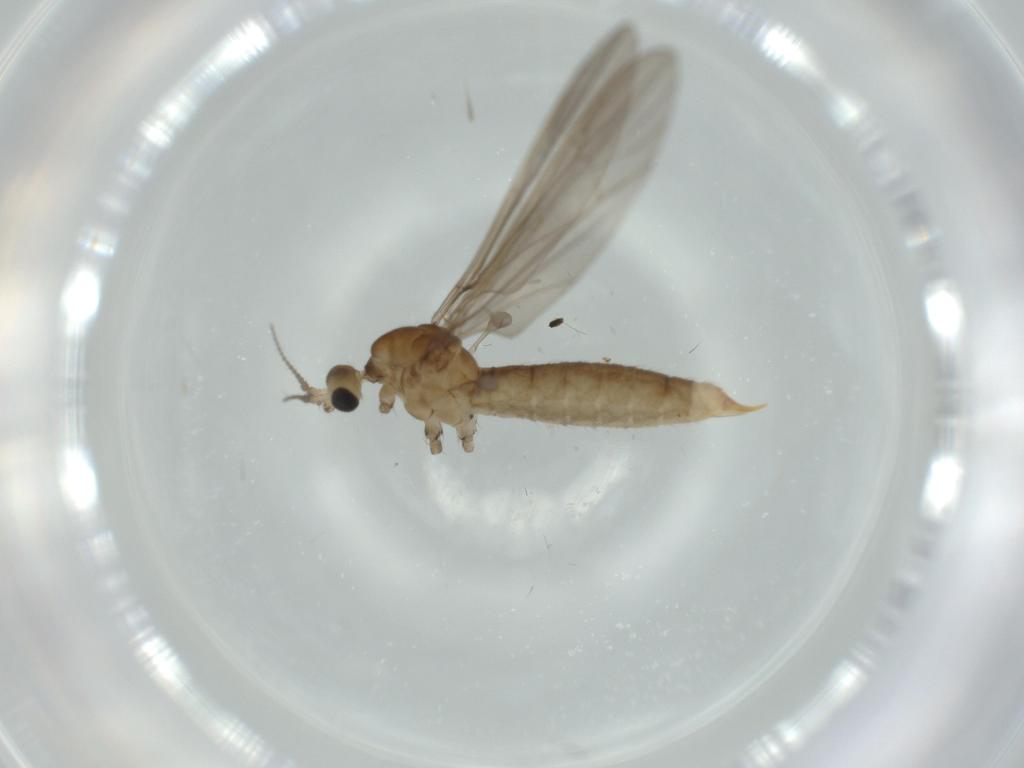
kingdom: Animalia
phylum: Arthropoda
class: Insecta
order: Diptera
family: Limoniidae
